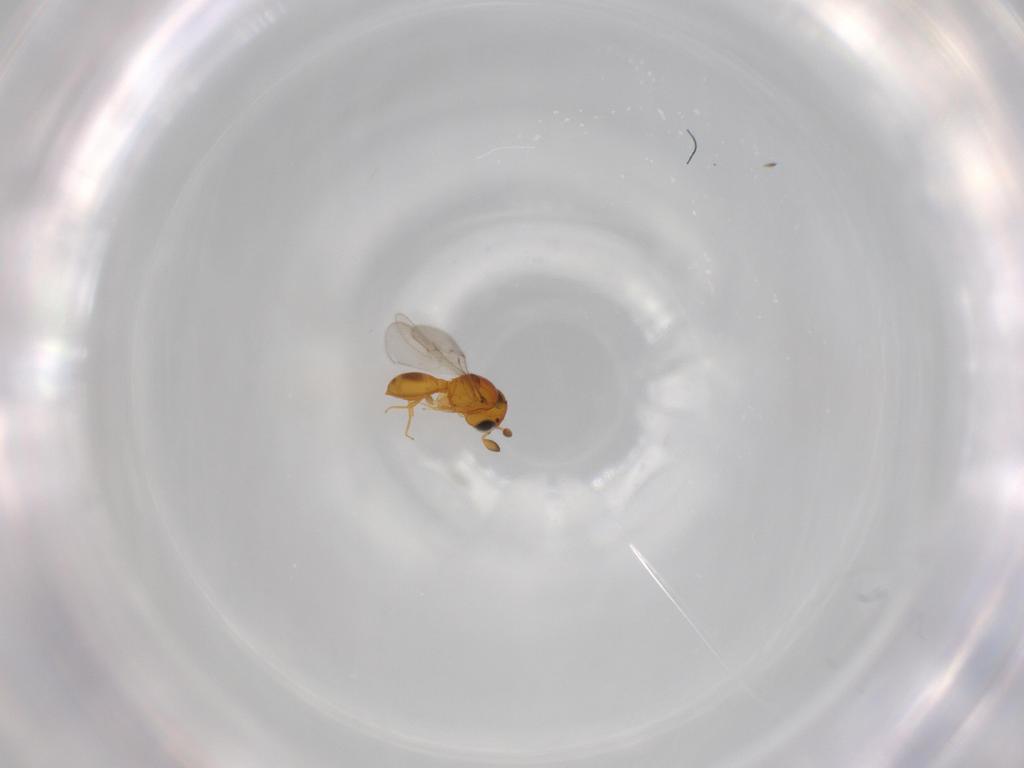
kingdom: Animalia
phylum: Arthropoda
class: Insecta
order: Hymenoptera
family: Scelionidae
